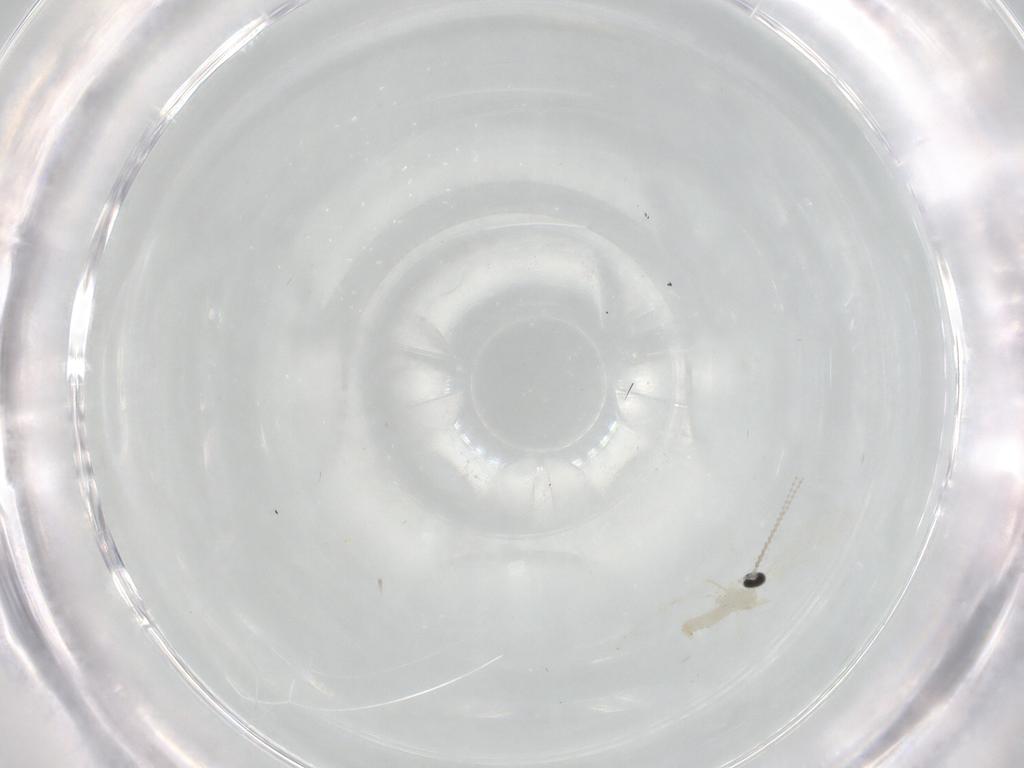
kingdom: Animalia
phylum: Arthropoda
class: Insecta
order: Diptera
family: Cecidomyiidae
